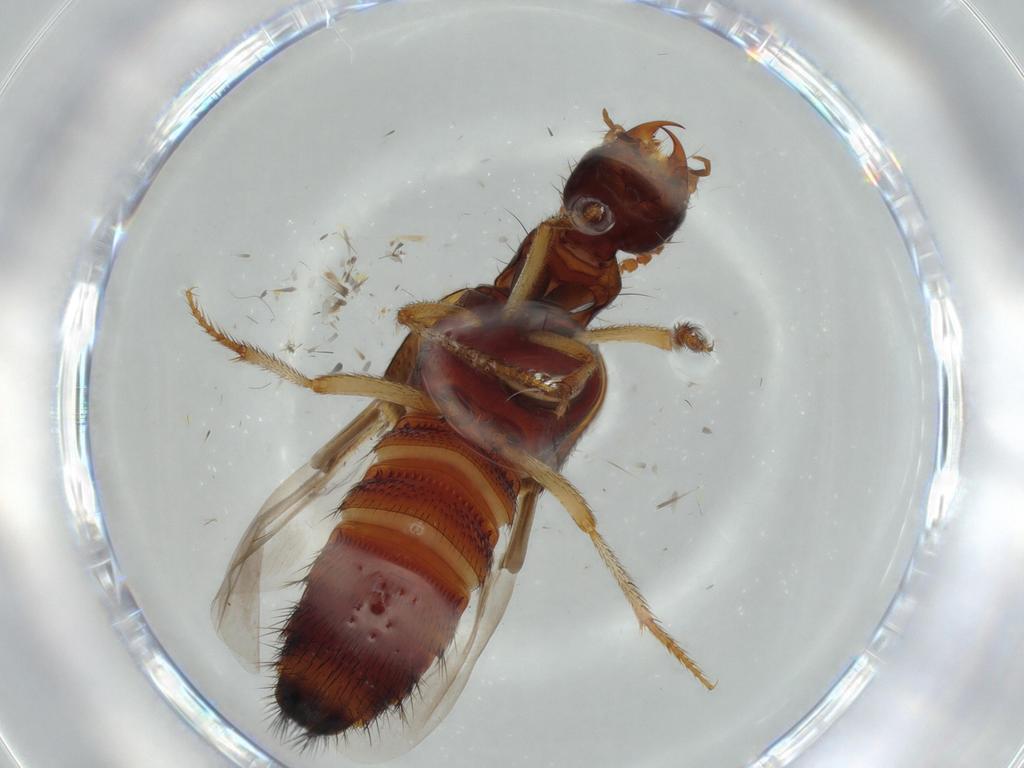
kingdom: Animalia
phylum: Arthropoda
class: Insecta
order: Coleoptera
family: Staphylinidae
